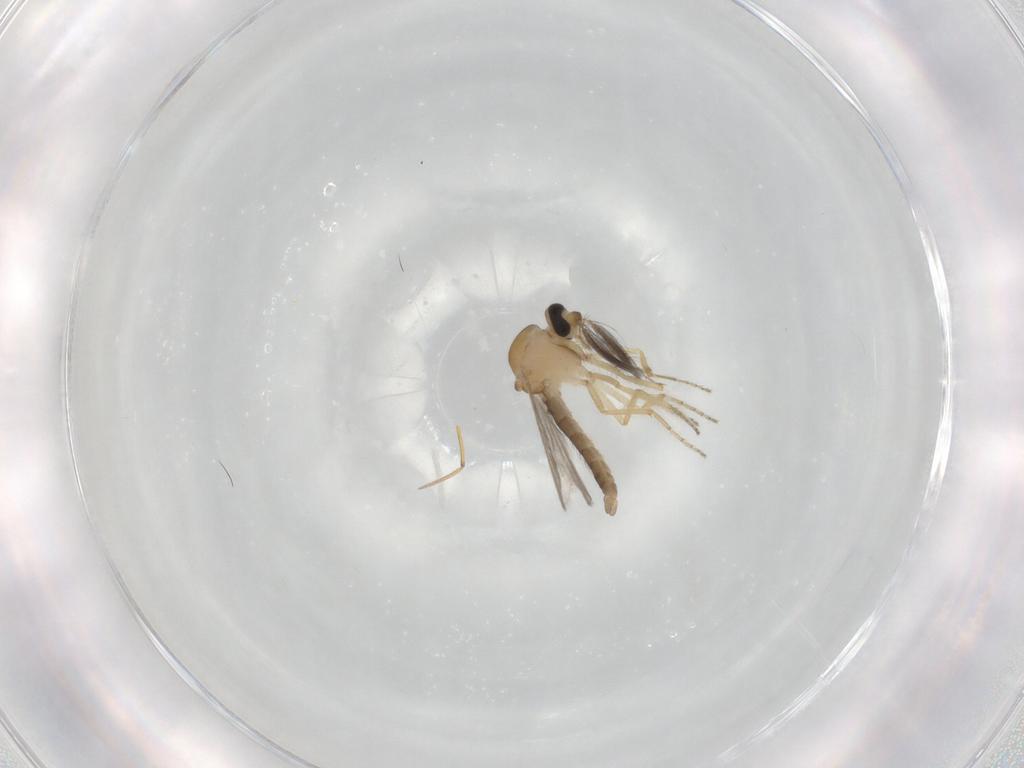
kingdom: Animalia
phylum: Arthropoda
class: Insecta
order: Diptera
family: Ceratopogonidae
